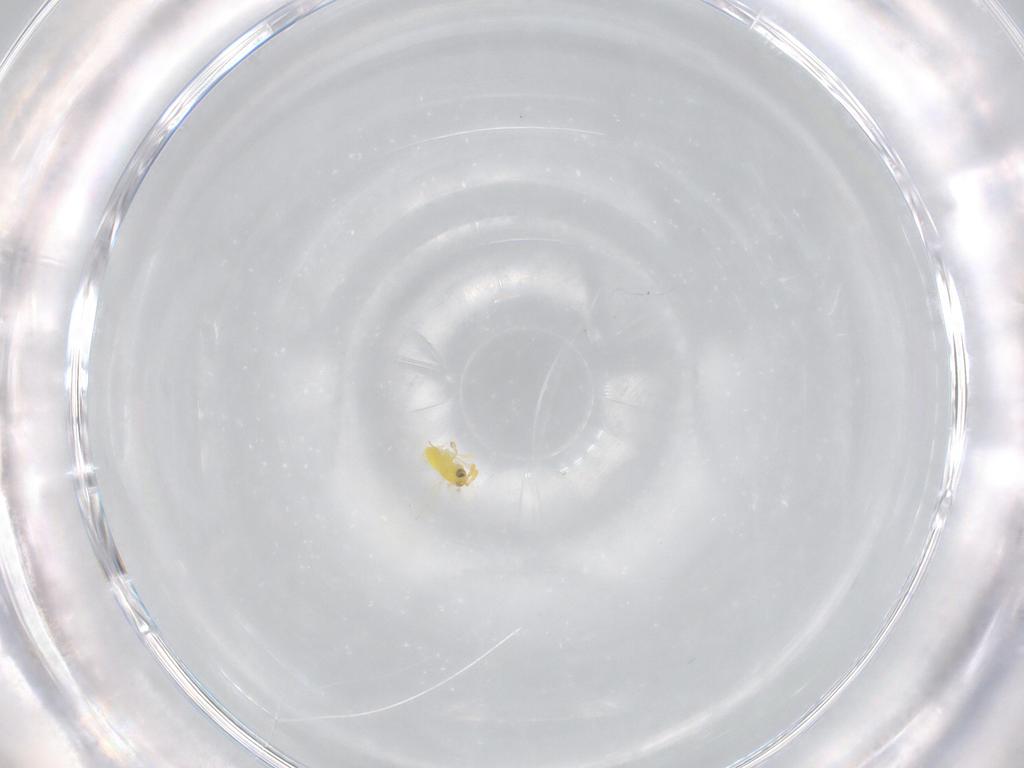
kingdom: Animalia
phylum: Arthropoda
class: Insecta
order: Hymenoptera
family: Aphelinidae
